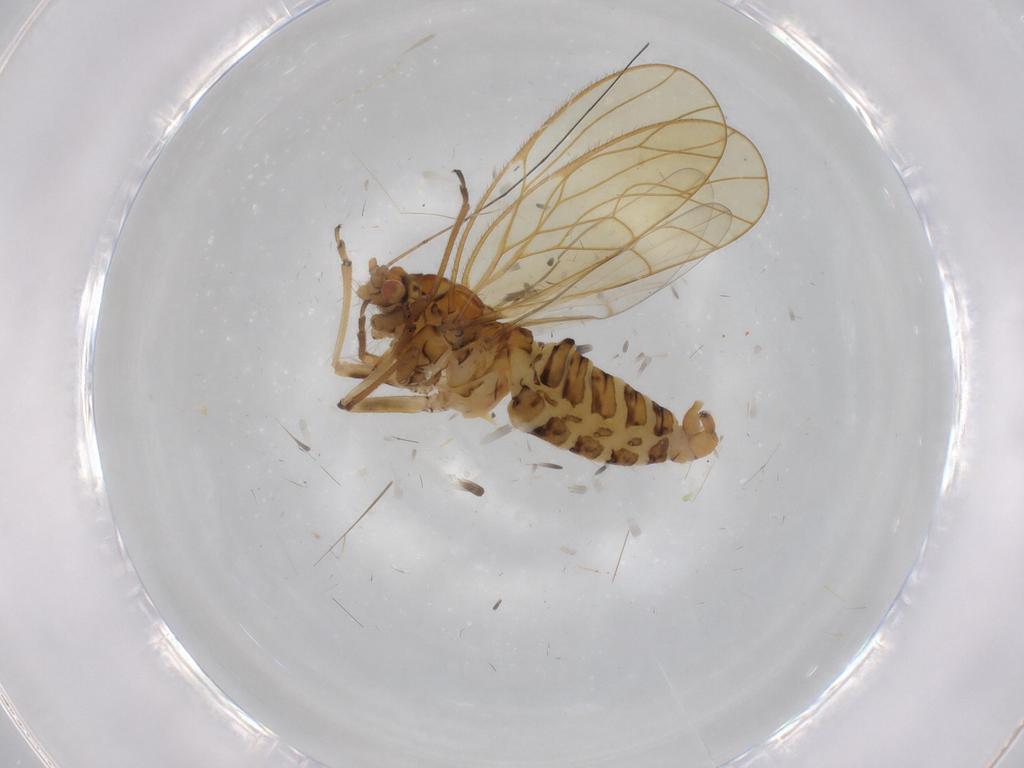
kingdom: Animalia
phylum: Arthropoda
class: Insecta
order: Hemiptera
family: Psyllidae
